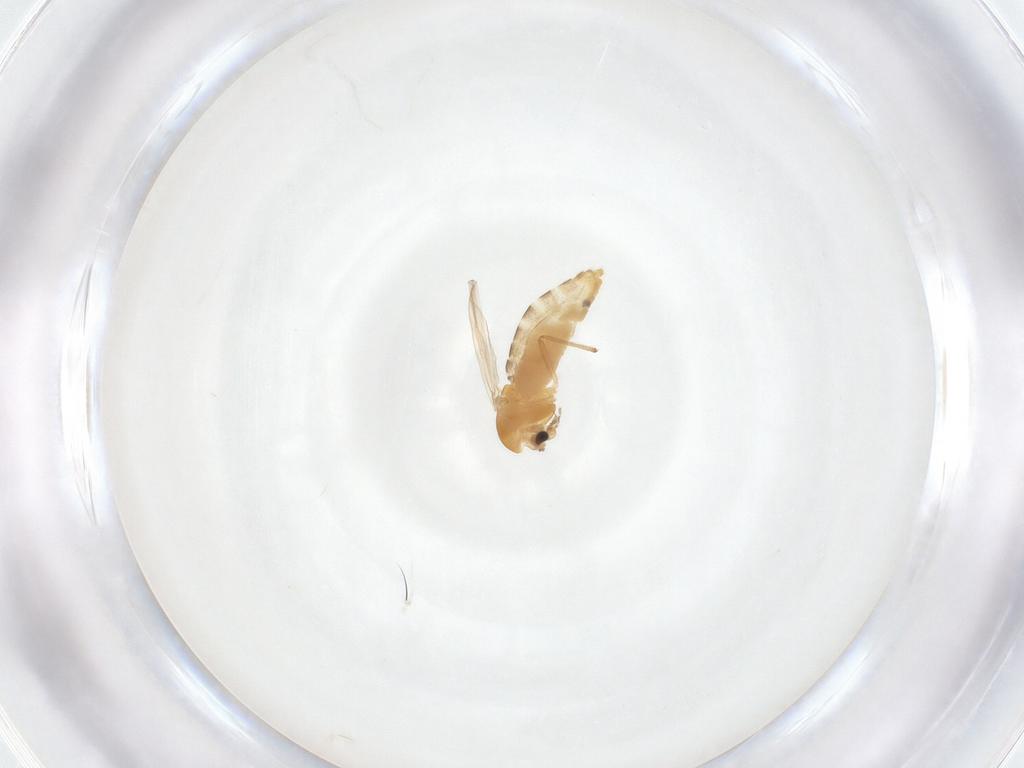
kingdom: Animalia
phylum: Arthropoda
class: Insecta
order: Diptera
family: Chironomidae
